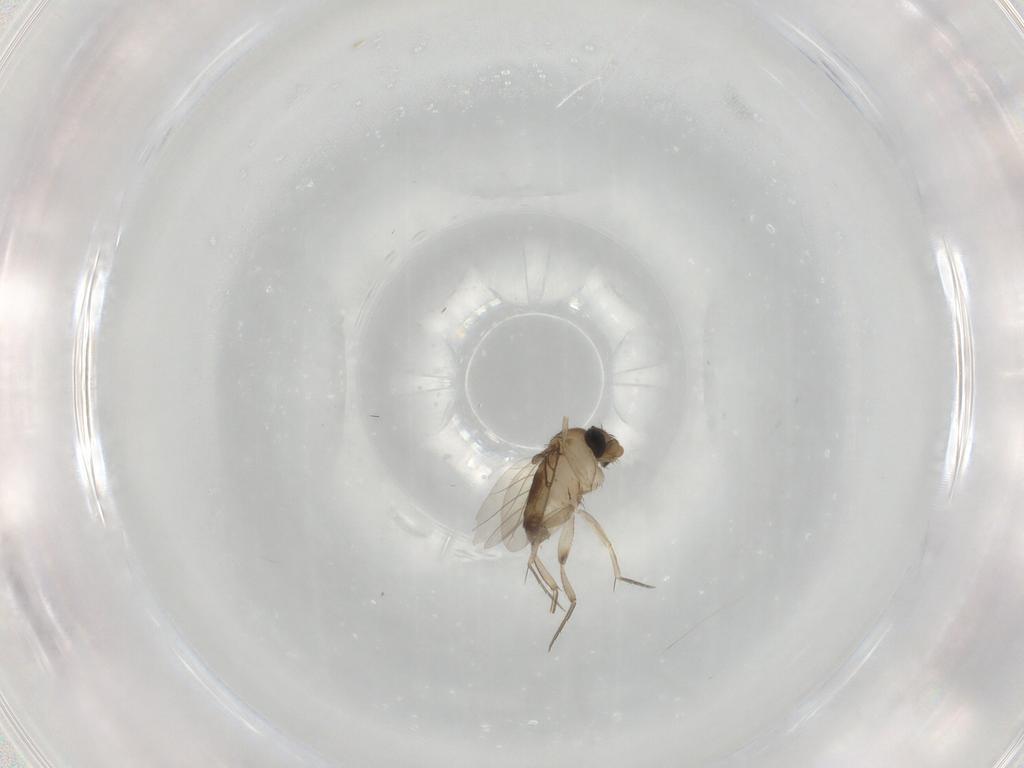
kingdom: Animalia
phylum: Arthropoda
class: Insecta
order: Diptera
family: Phoridae
